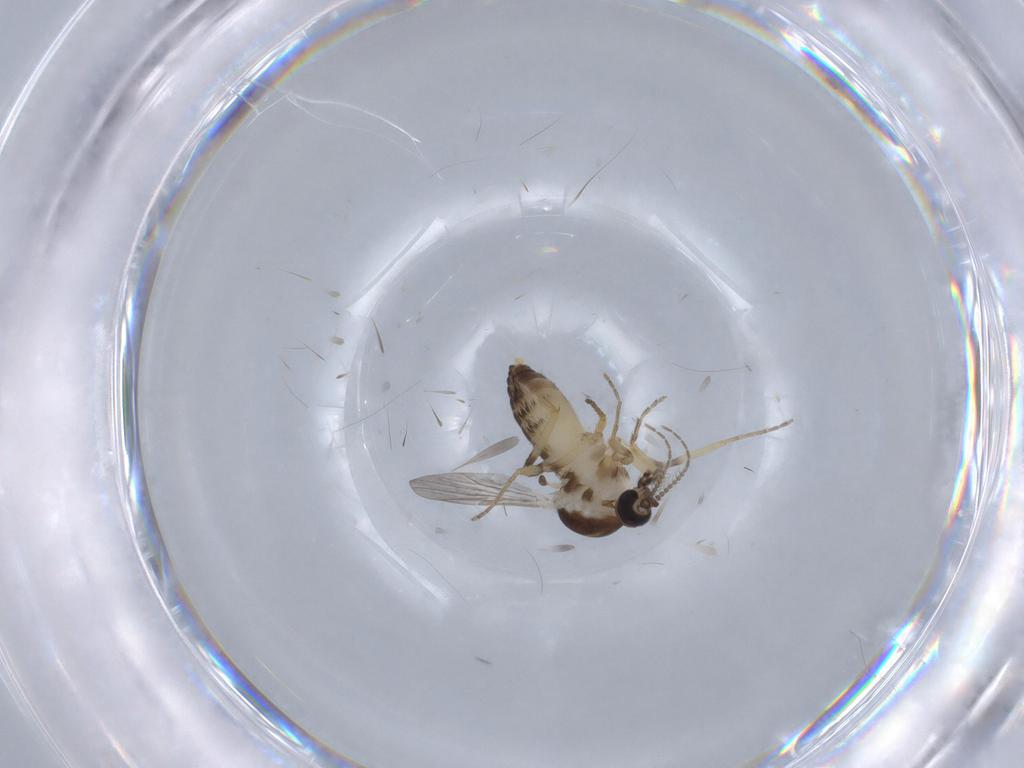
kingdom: Animalia
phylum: Arthropoda
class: Insecta
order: Diptera
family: Ceratopogonidae
